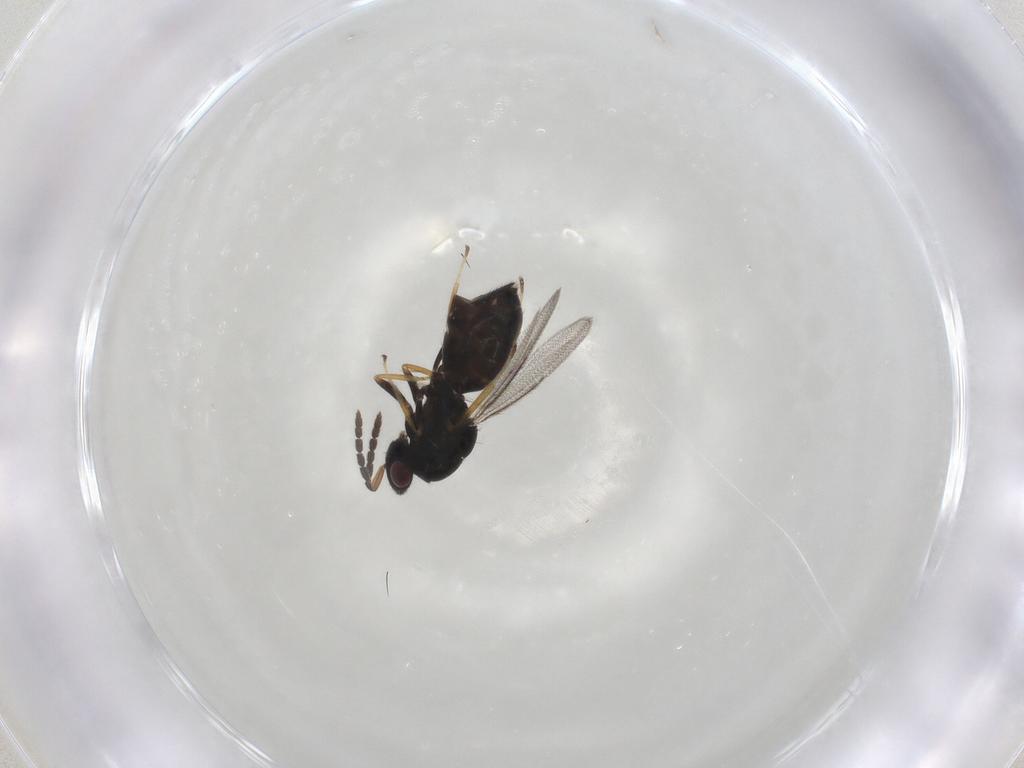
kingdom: Animalia
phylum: Arthropoda
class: Insecta
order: Hymenoptera
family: Eulophidae
